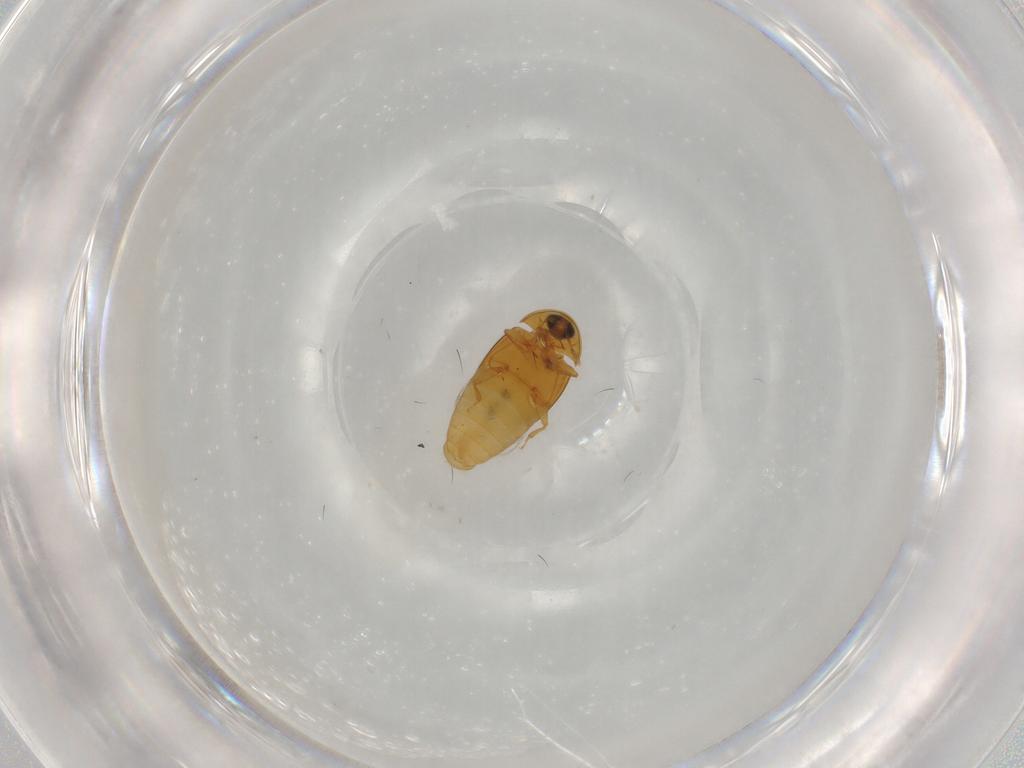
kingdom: Animalia
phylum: Arthropoda
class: Insecta
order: Coleoptera
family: Corylophidae
